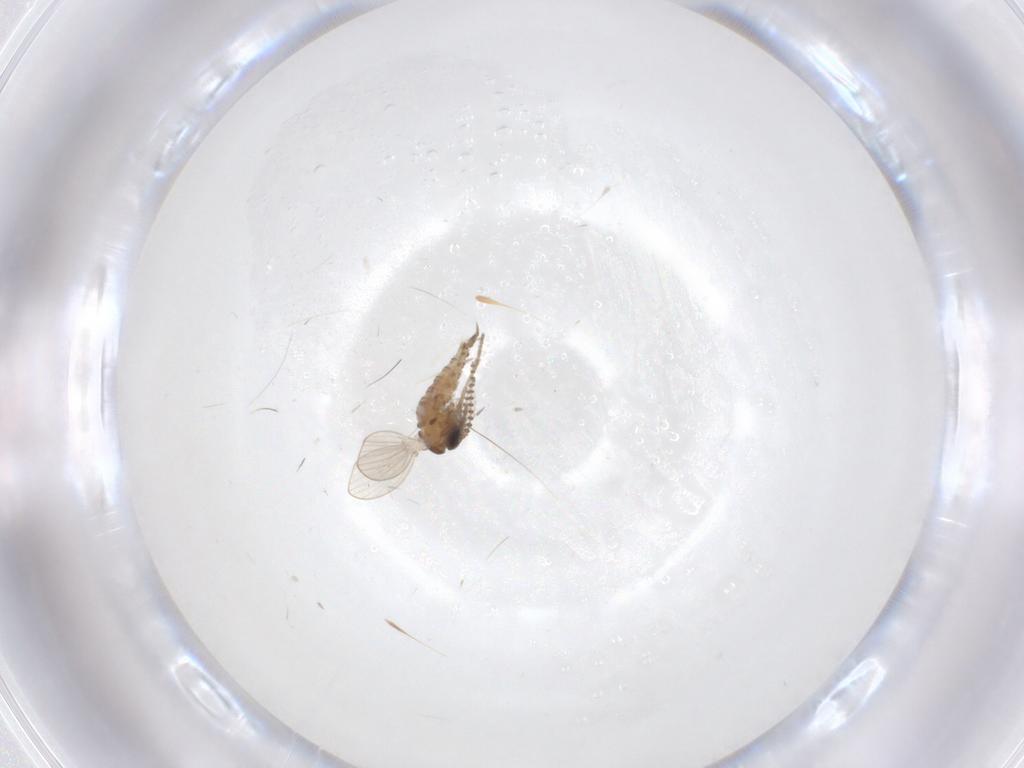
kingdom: Animalia
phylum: Arthropoda
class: Insecta
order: Diptera
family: Psychodidae
